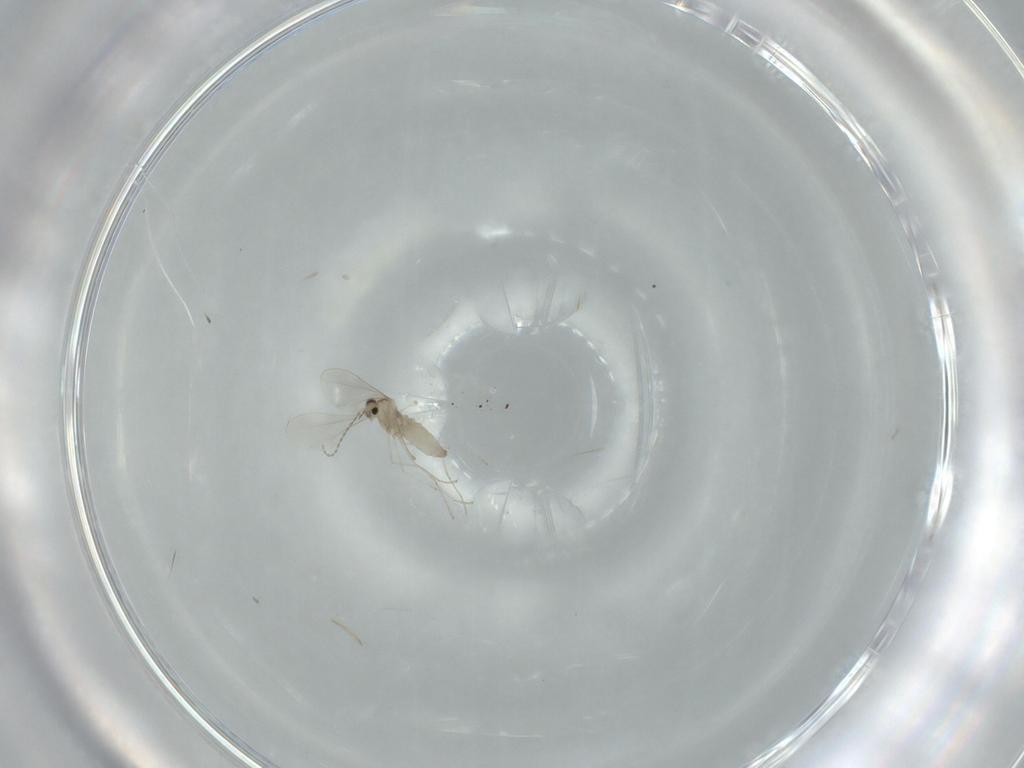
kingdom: Animalia
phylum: Arthropoda
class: Insecta
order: Diptera
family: Cecidomyiidae
